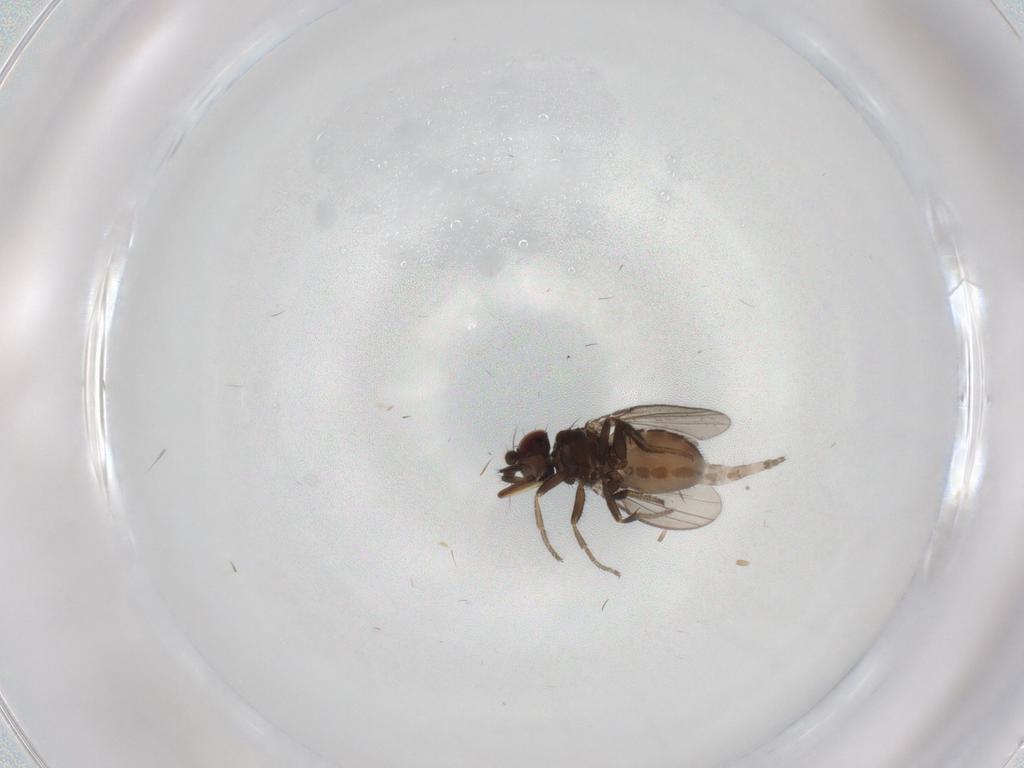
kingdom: Animalia
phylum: Arthropoda
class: Insecta
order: Diptera
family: Milichiidae
